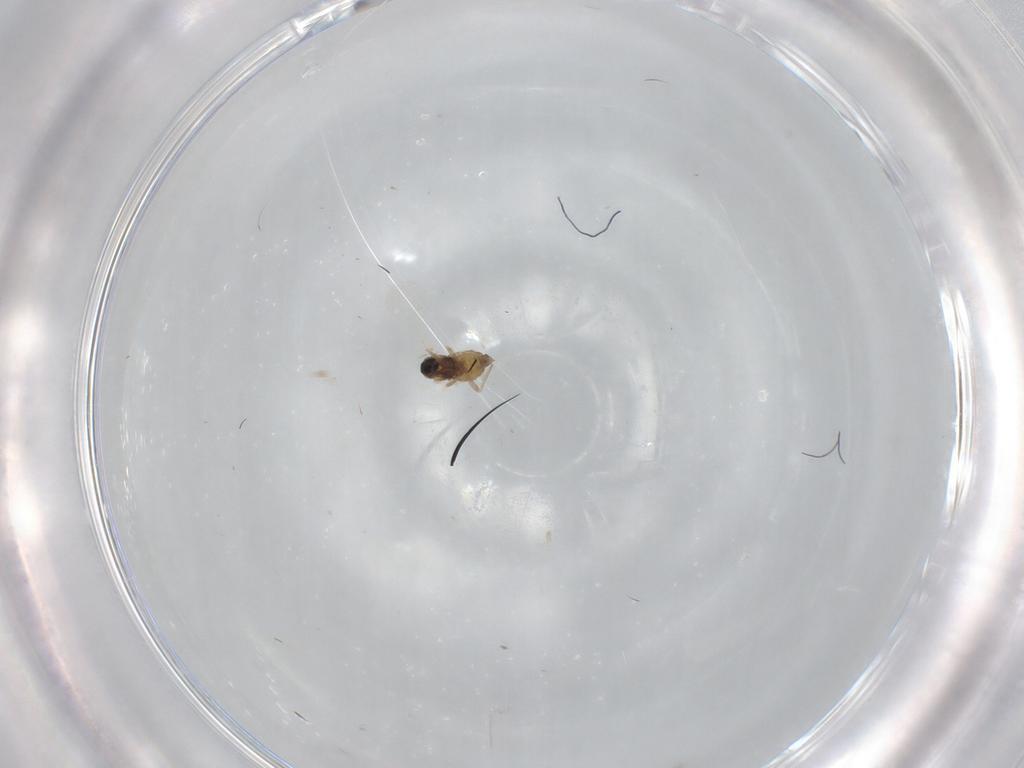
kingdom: Animalia
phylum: Arthropoda
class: Insecta
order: Diptera
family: Cecidomyiidae
